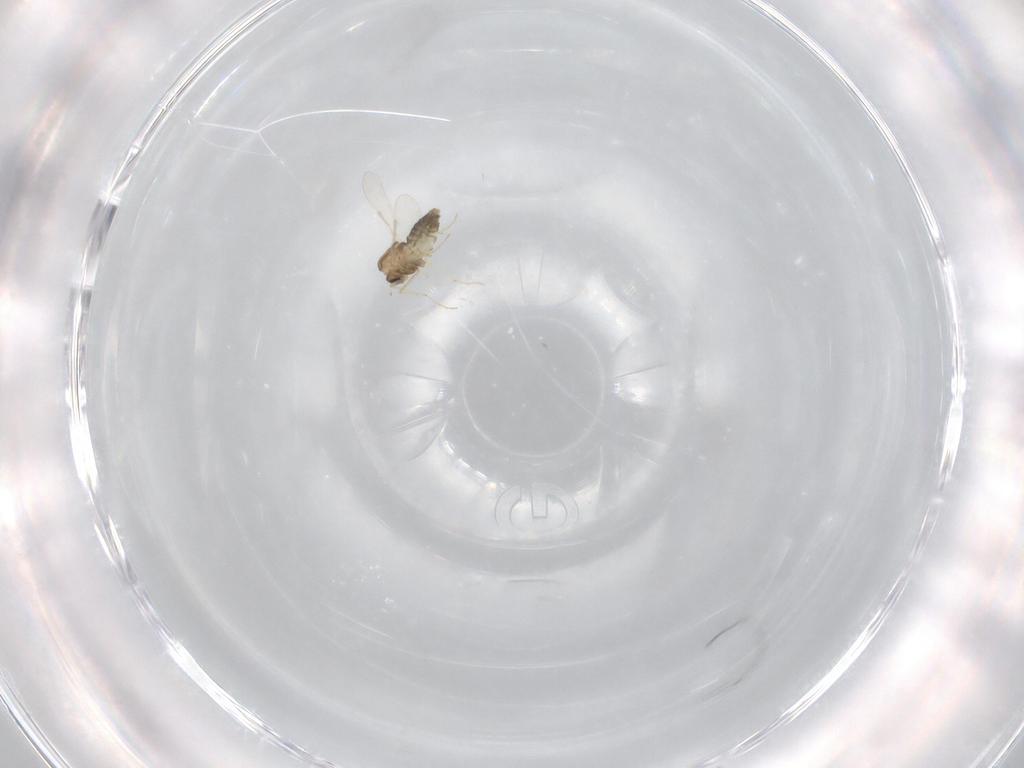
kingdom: Animalia
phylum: Arthropoda
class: Insecta
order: Diptera
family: Chironomidae
